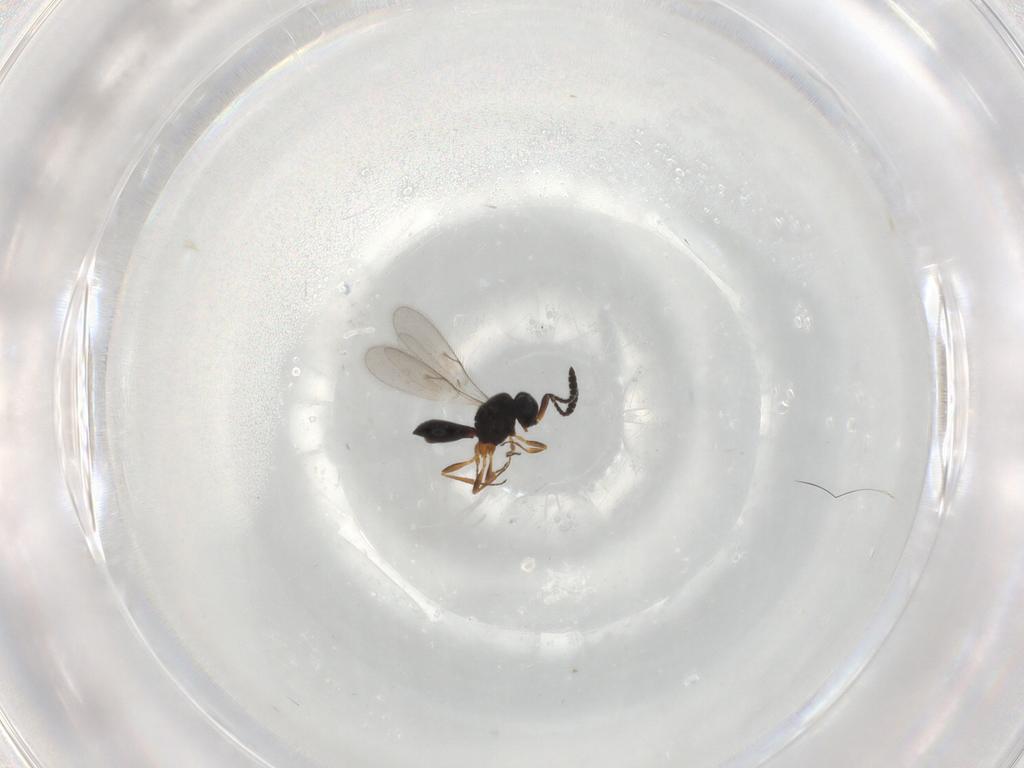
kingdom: Animalia
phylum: Arthropoda
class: Insecta
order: Hymenoptera
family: Scelionidae
